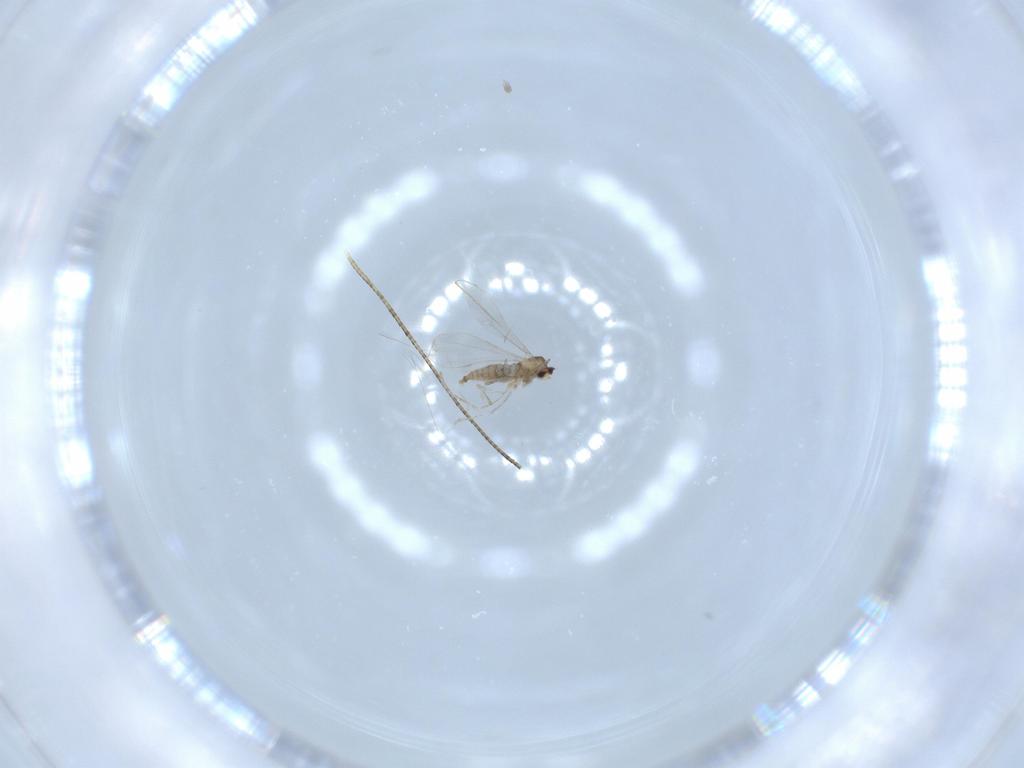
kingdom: Animalia
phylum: Arthropoda
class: Insecta
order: Diptera
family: Cecidomyiidae
